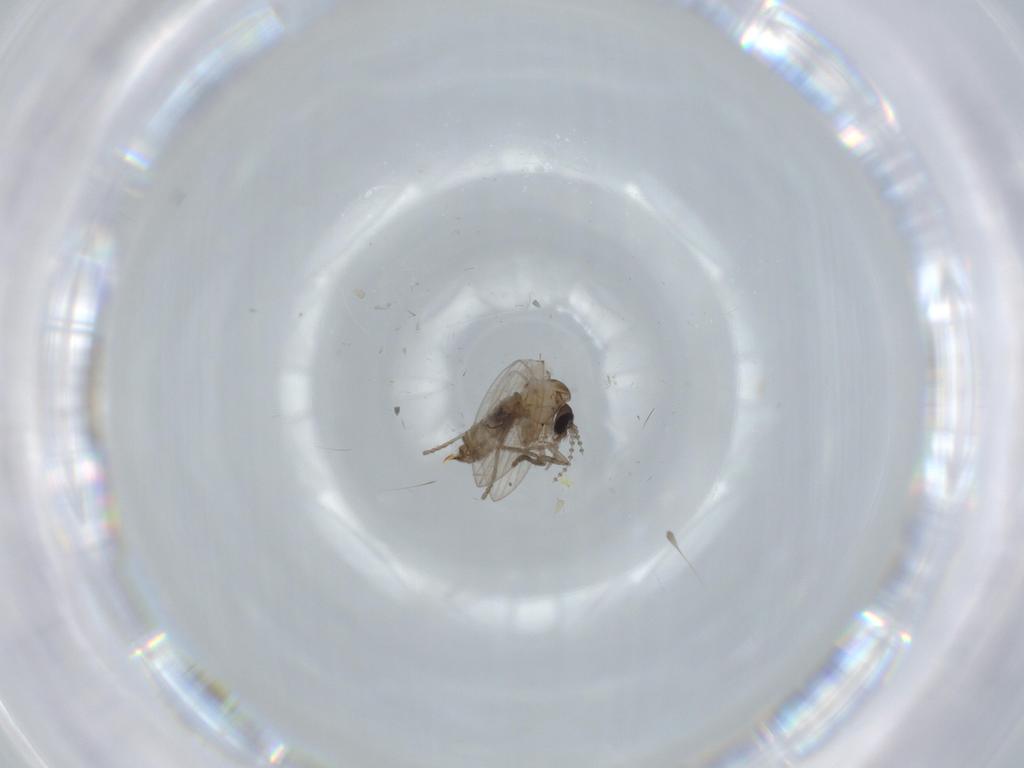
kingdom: Animalia
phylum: Arthropoda
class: Insecta
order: Diptera
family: Psychodidae
